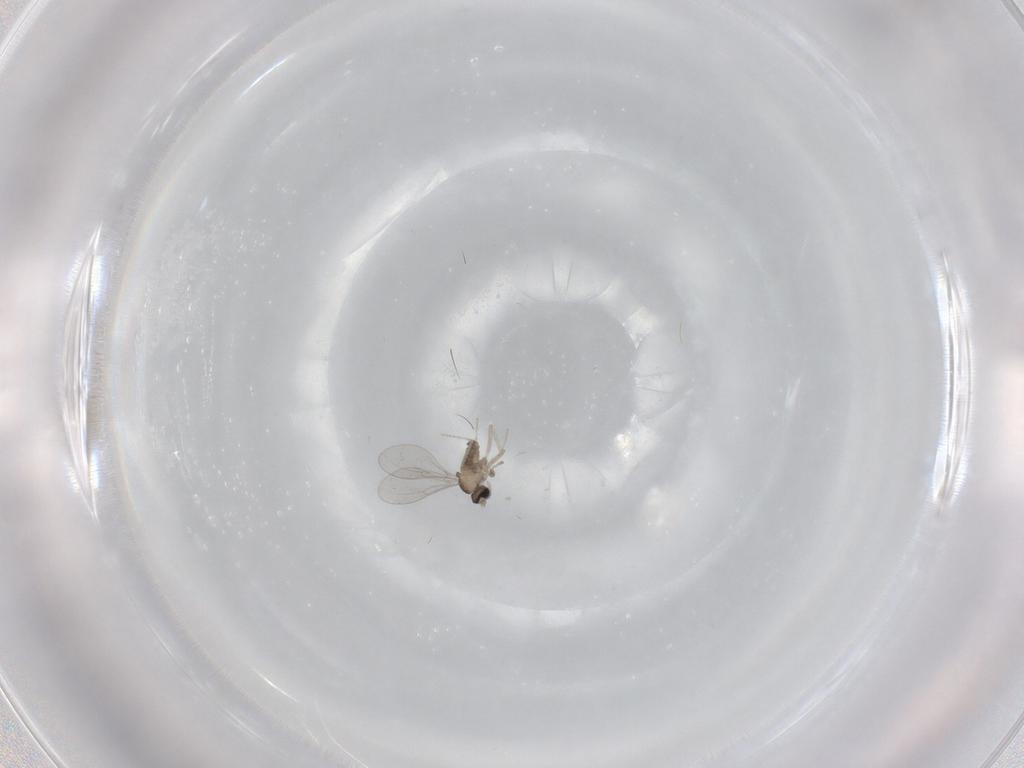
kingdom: Animalia
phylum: Arthropoda
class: Insecta
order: Diptera
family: Cecidomyiidae
